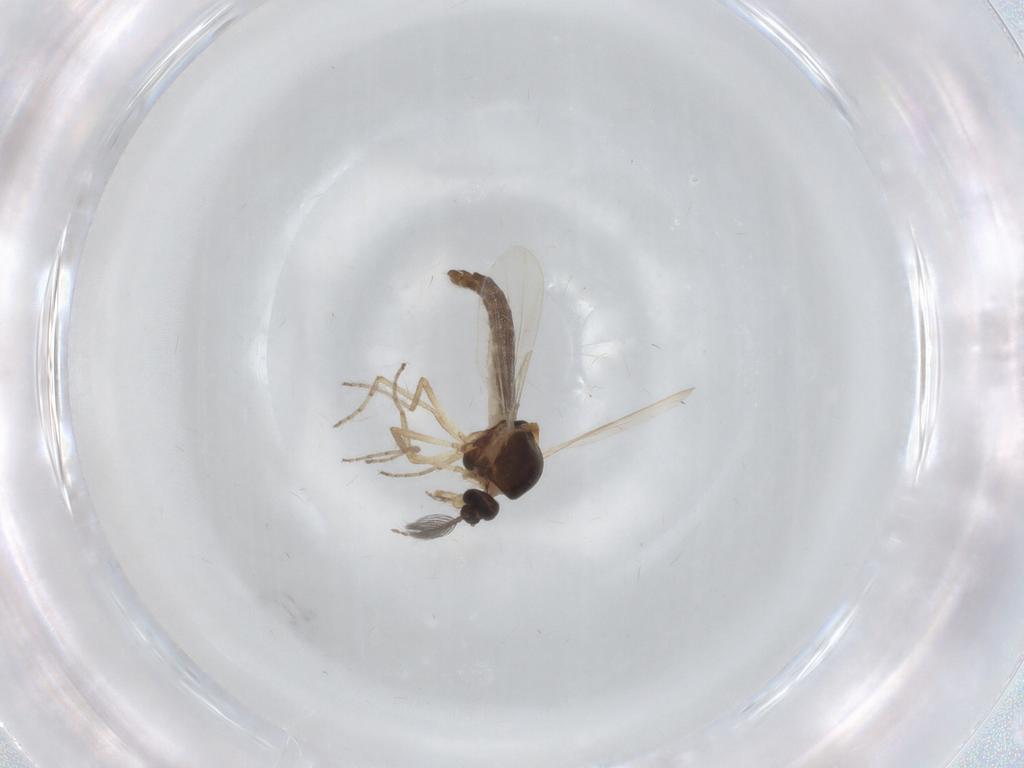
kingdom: Animalia
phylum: Arthropoda
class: Insecta
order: Diptera
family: Ceratopogonidae
